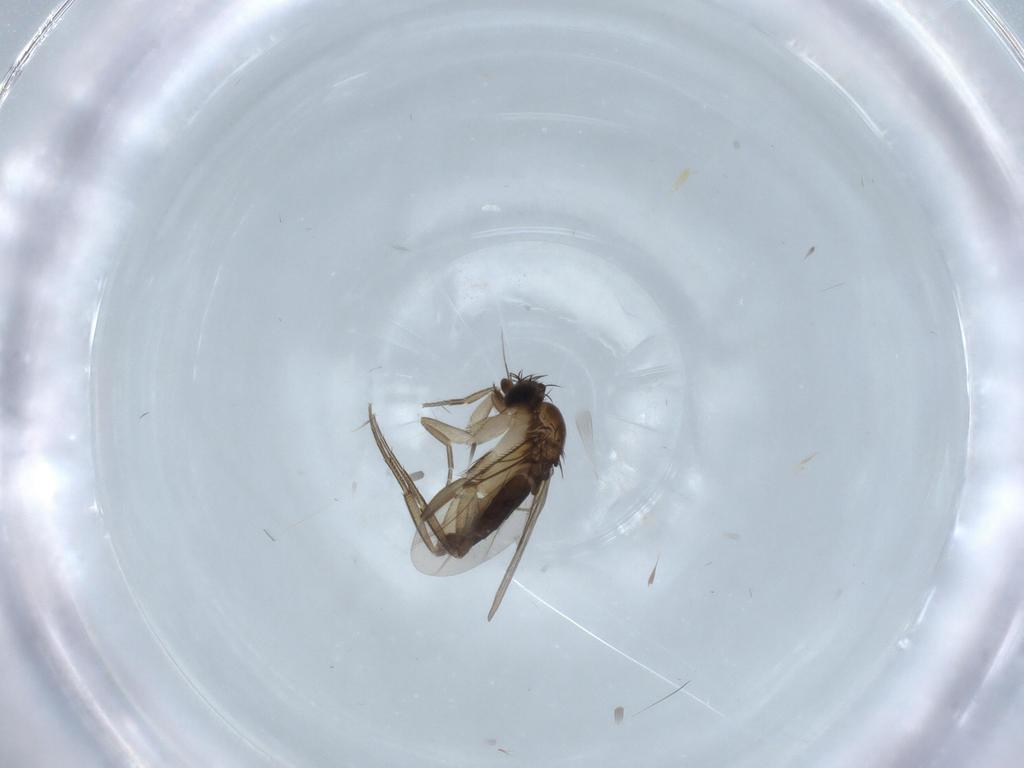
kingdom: Animalia
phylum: Arthropoda
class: Insecta
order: Diptera
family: Phoridae
